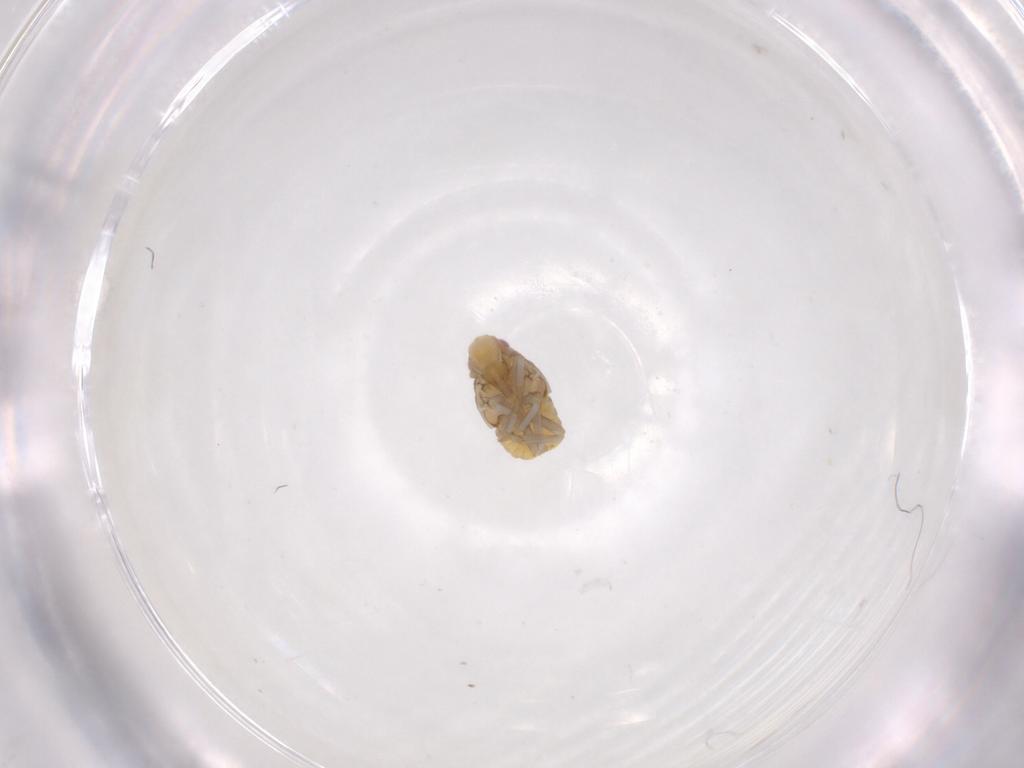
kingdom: Animalia
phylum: Arthropoda
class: Insecta
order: Hemiptera
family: Flatidae
